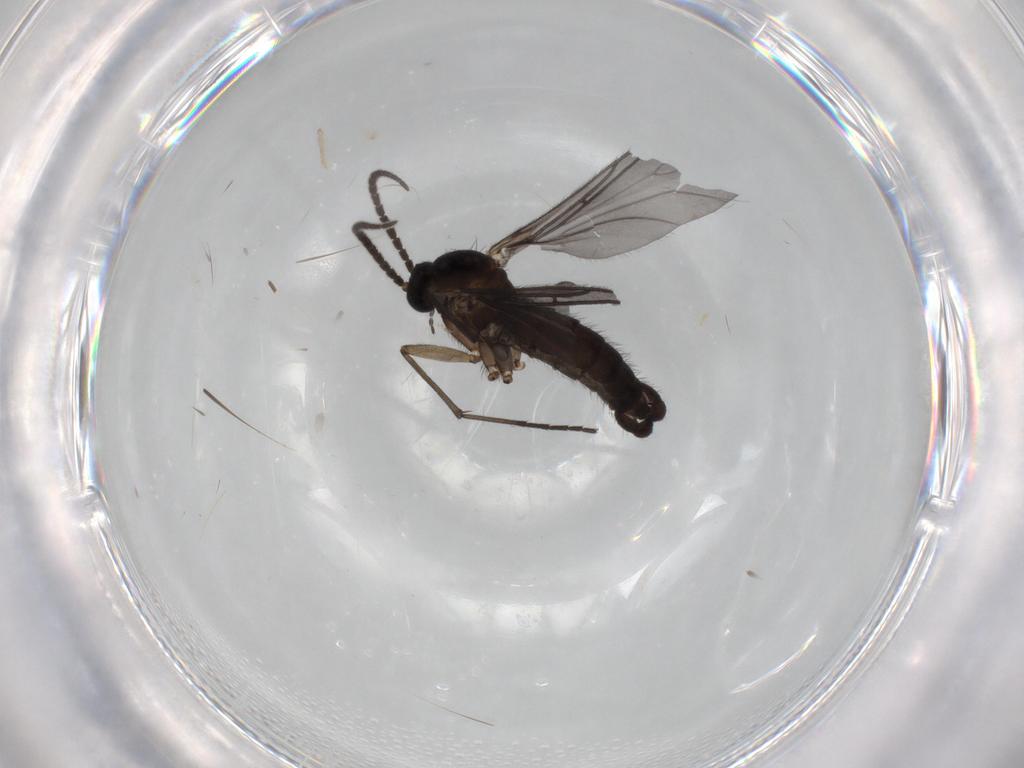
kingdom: Animalia
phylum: Arthropoda
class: Insecta
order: Diptera
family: Sciaridae
